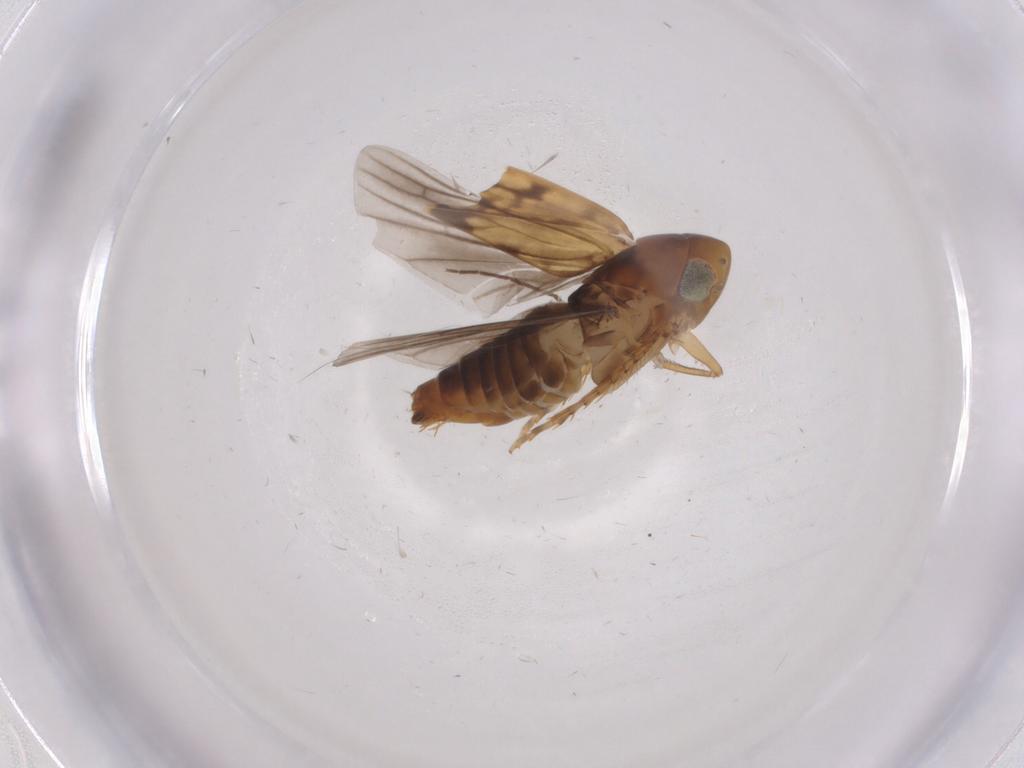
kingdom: Animalia
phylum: Arthropoda
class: Insecta
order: Hemiptera
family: Cicadellidae
